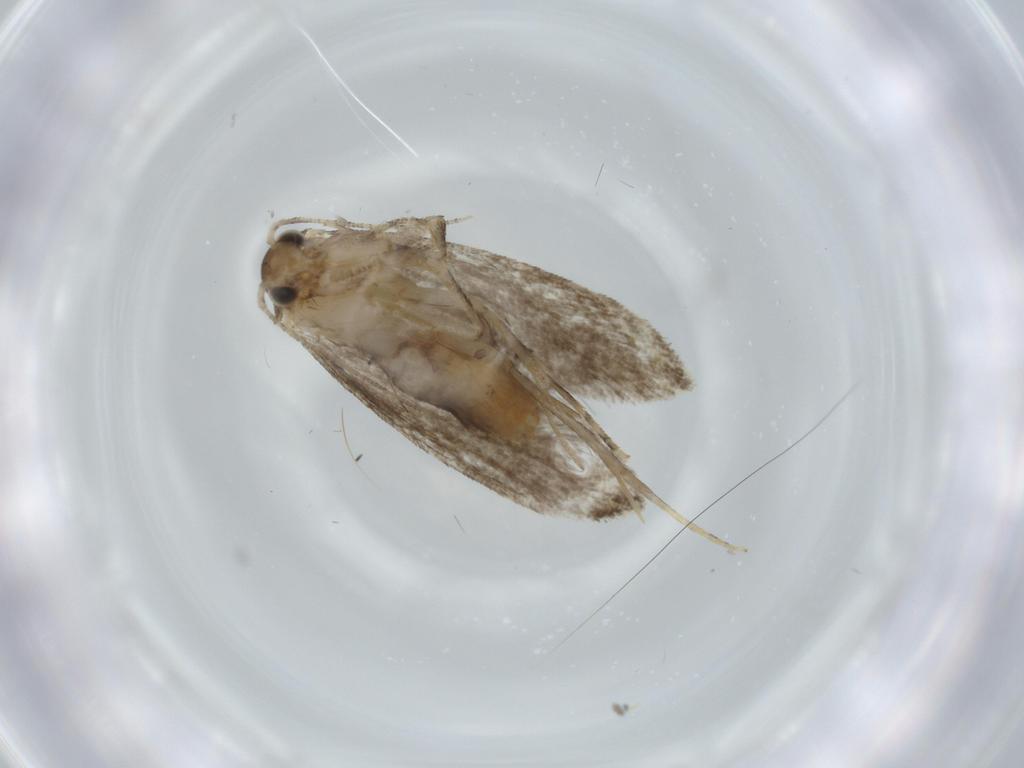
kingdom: Animalia
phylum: Arthropoda
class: Insecta
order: Lepidoptera
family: Tineidae
